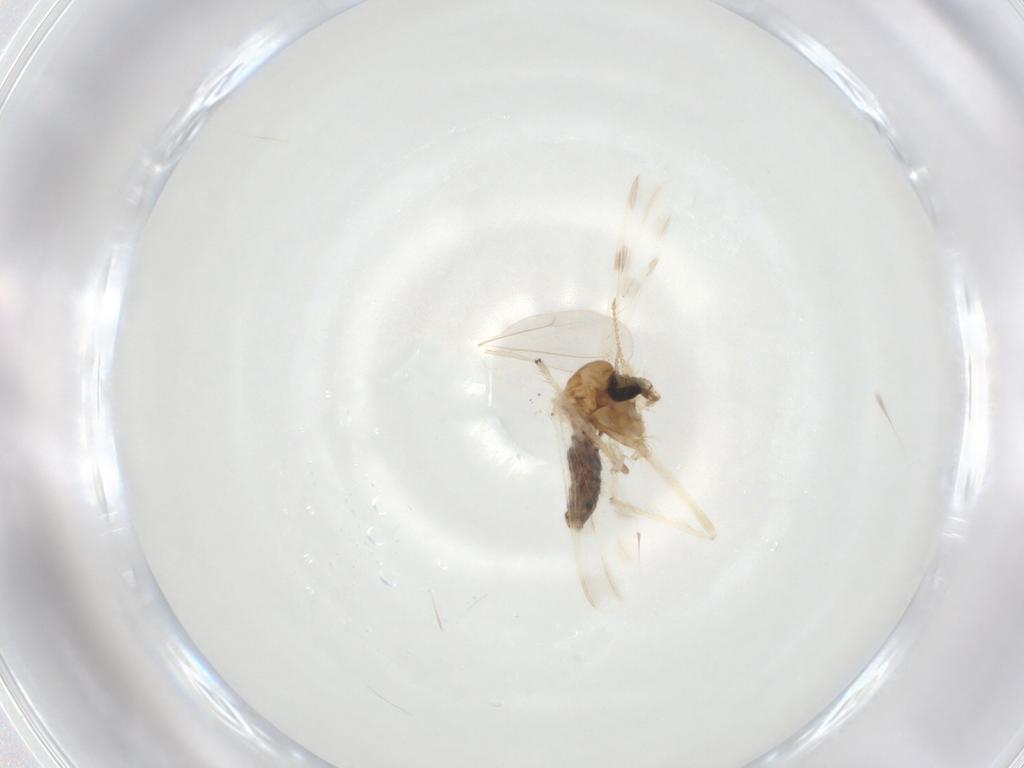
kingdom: Animalia
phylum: Arthropoda
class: Insecta
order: Diptera
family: Chironomidae
